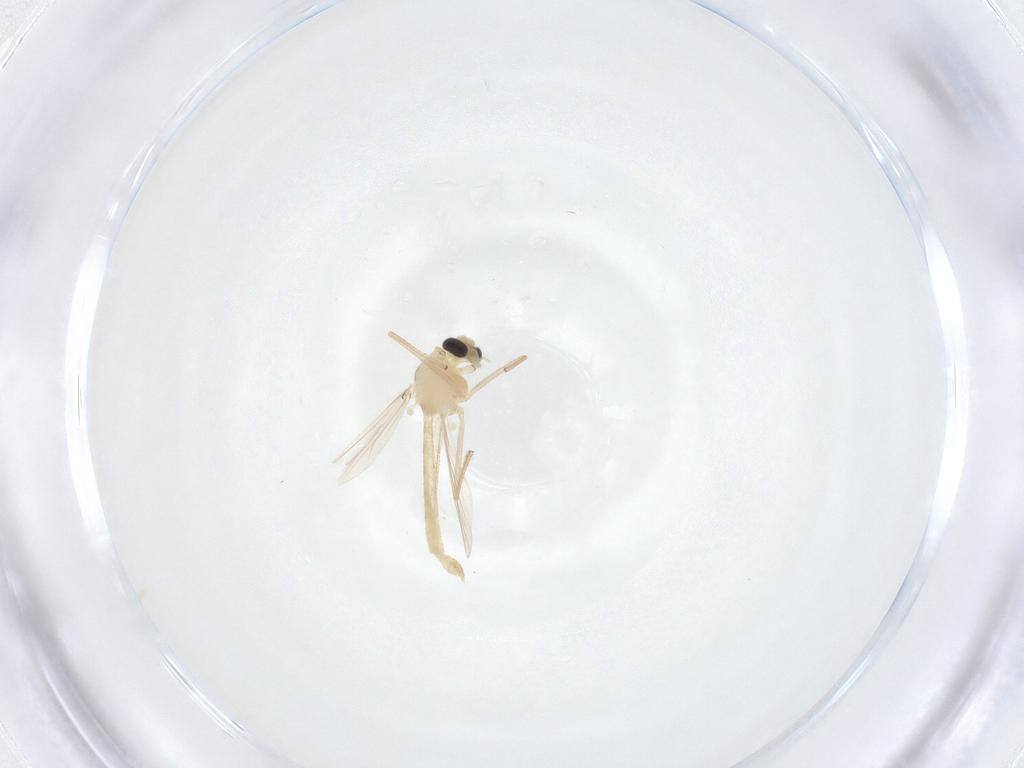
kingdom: Animalia
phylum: Arthropoda
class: Insecta
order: Diptera
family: Chironomidae
